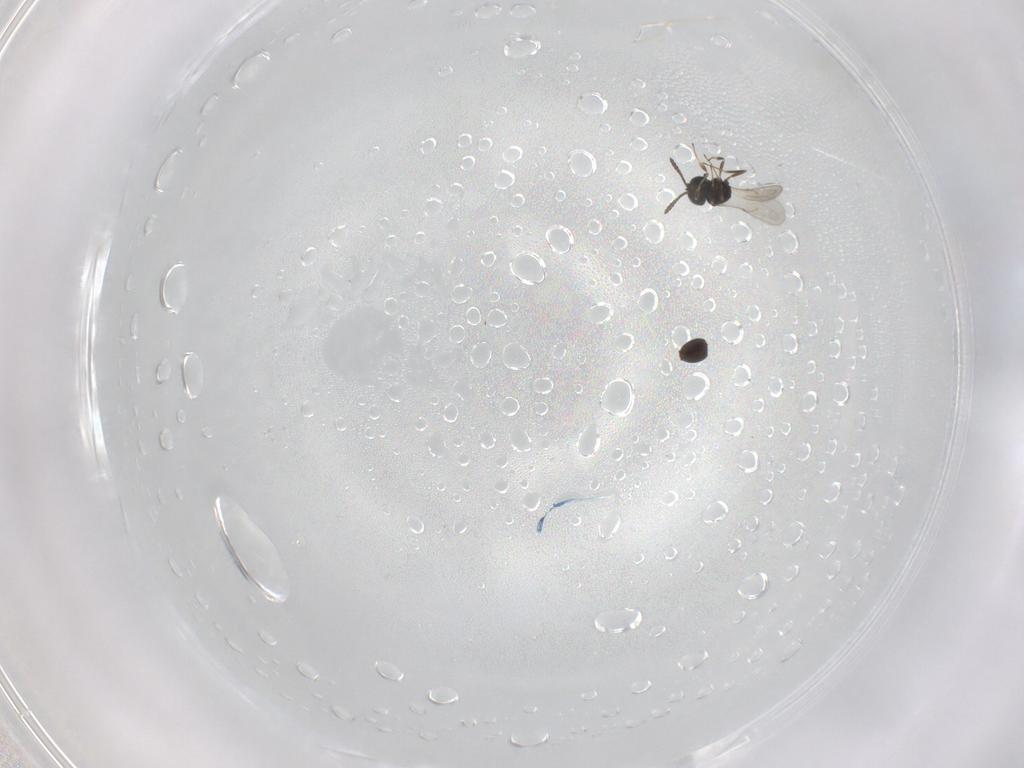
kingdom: Animalia
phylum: Arthropoda
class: Insecta
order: Hymenoptera
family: Scelionidae
